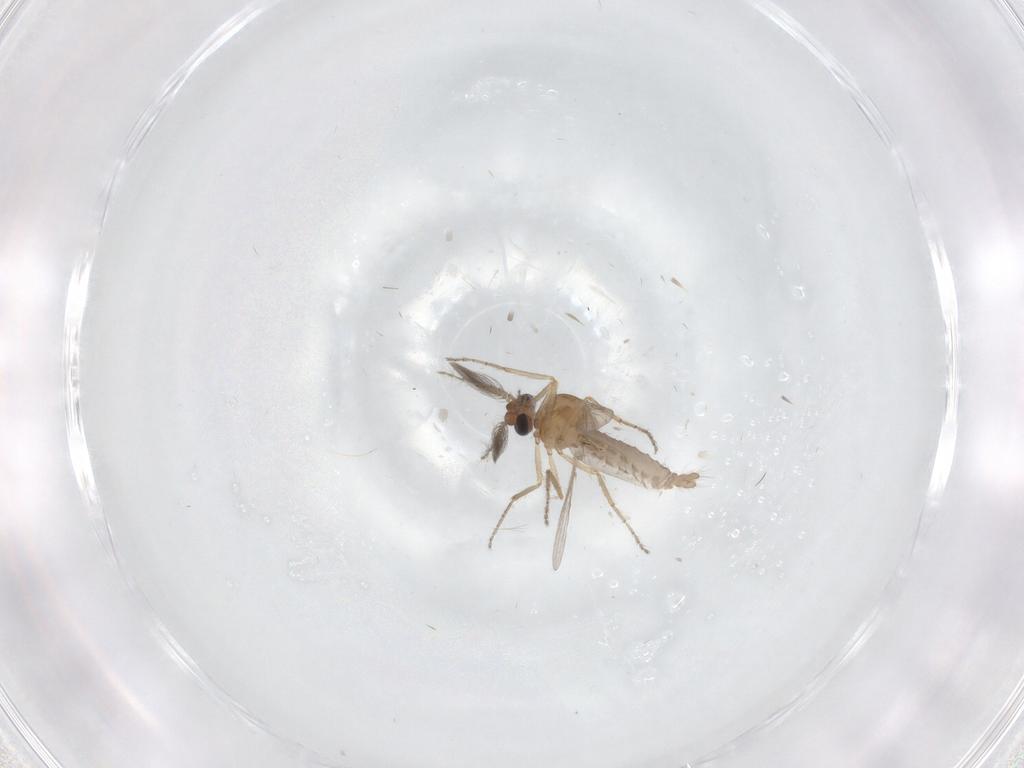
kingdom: Animalia
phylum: Arthropoda
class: Insecta
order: Diptera
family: Ceratopogonidae
